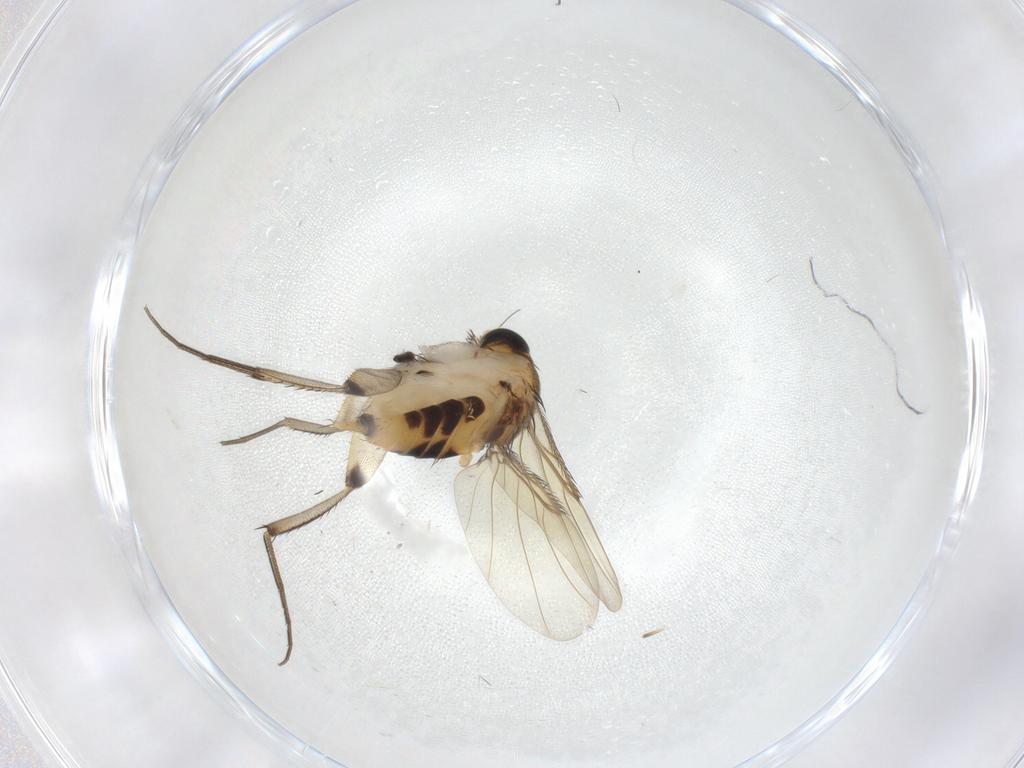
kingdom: Animalia
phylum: Arthropoda
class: Insecta
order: Diptera
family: Phoridae
